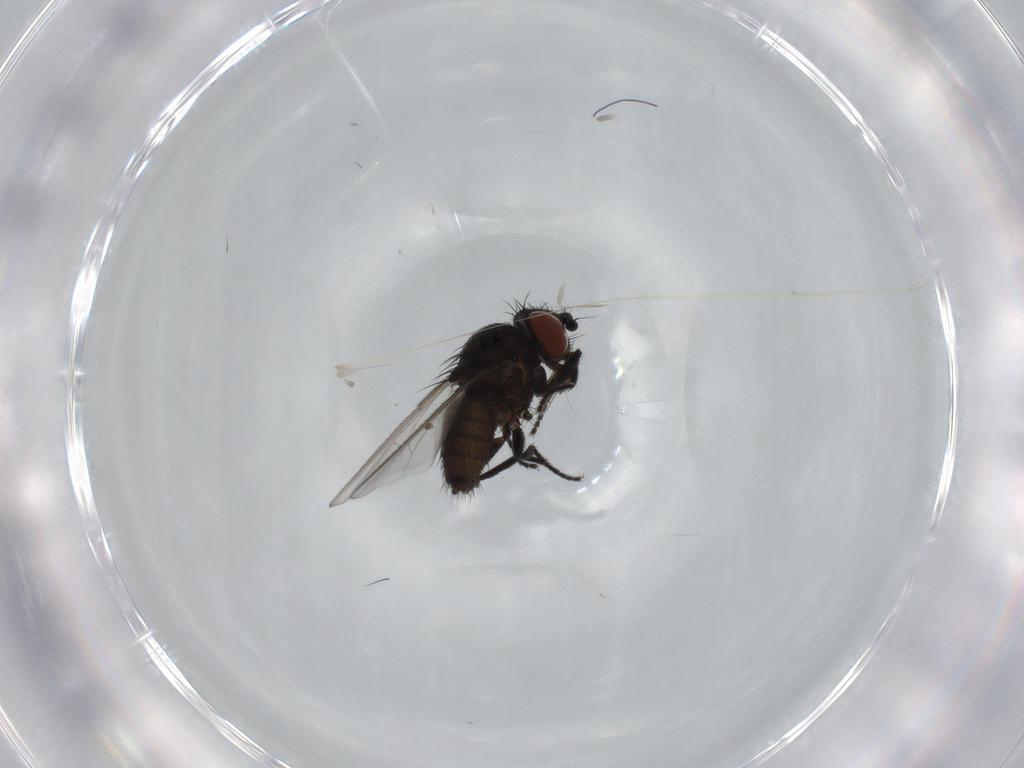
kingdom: Animalia
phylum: Arthropoda
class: Insecta
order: Diptera
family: Milichiidae
